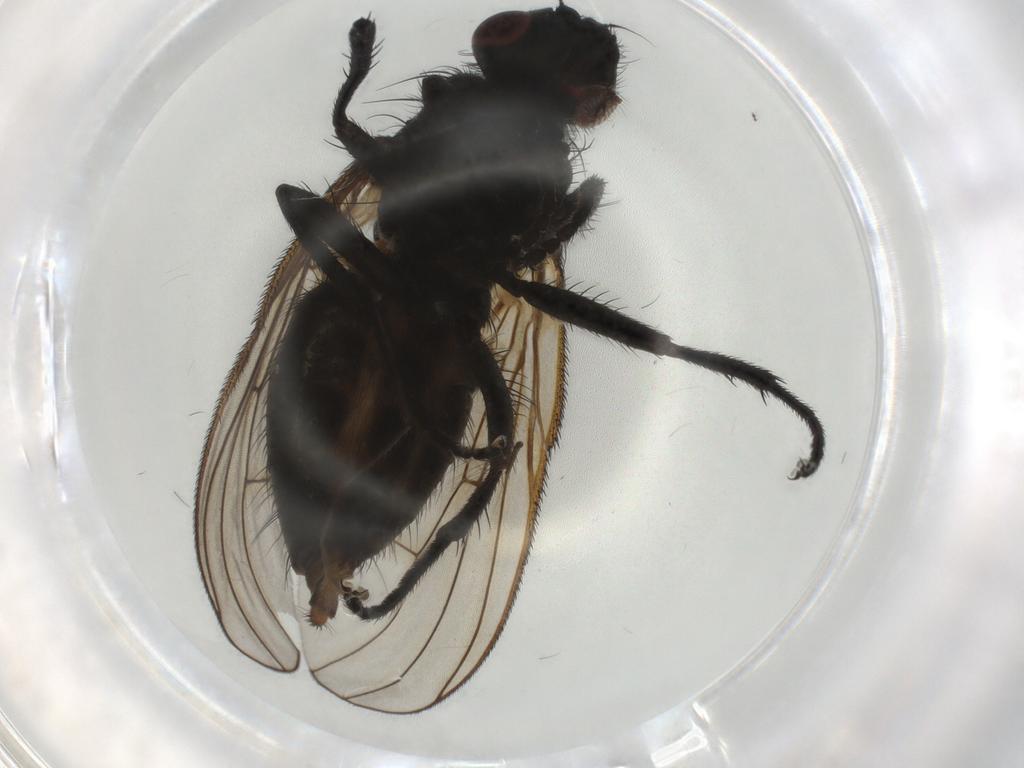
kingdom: Animalia
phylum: Arthropoda
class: Insecta
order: Diptera
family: Muscidae
